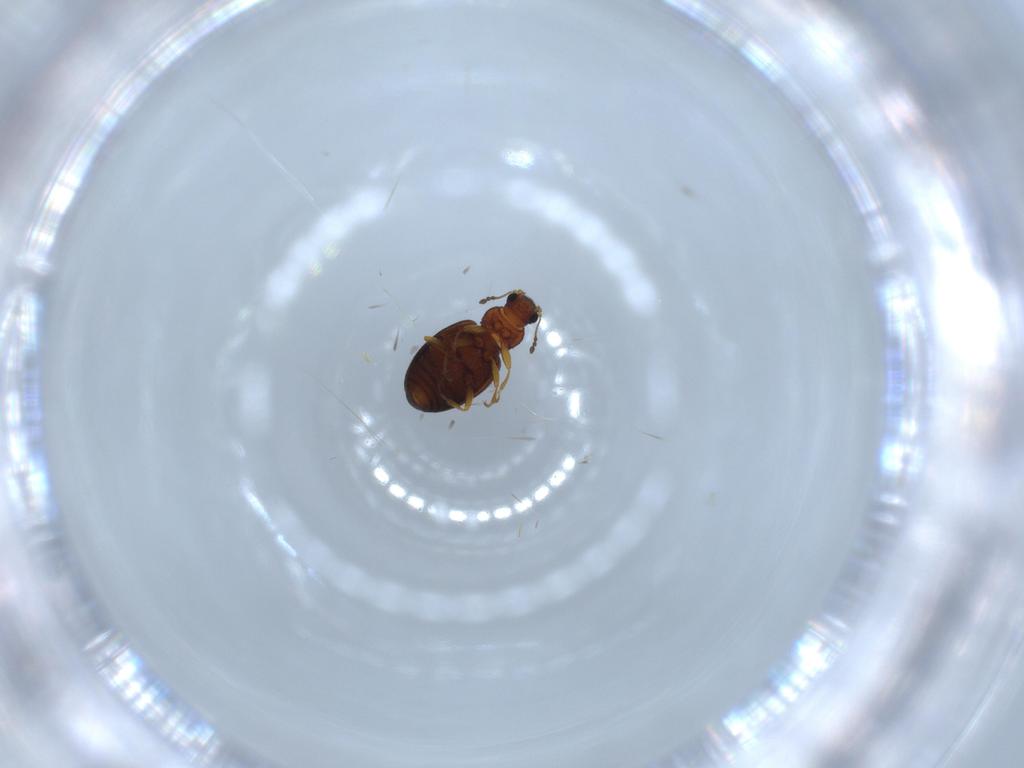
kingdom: Animalia
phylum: Arthropoda
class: Insecta
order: Coleoptera
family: Latridiidae
